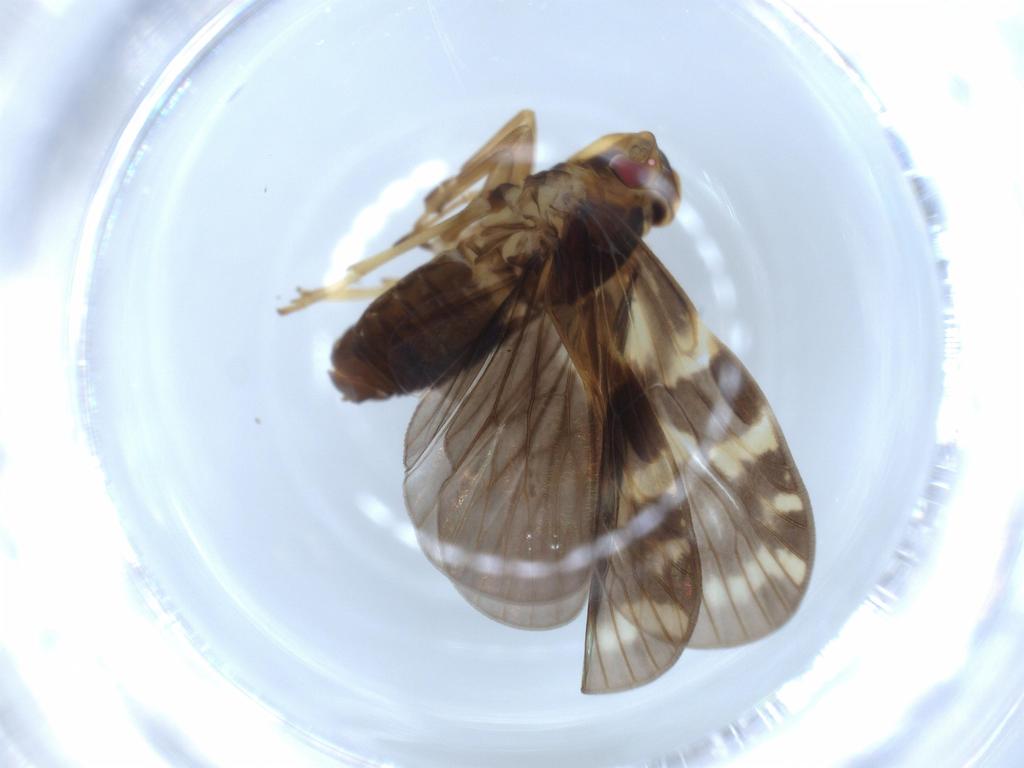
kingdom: Animalia
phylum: Arthropoda
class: Insecta
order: Hemiptera
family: Cixiidae
